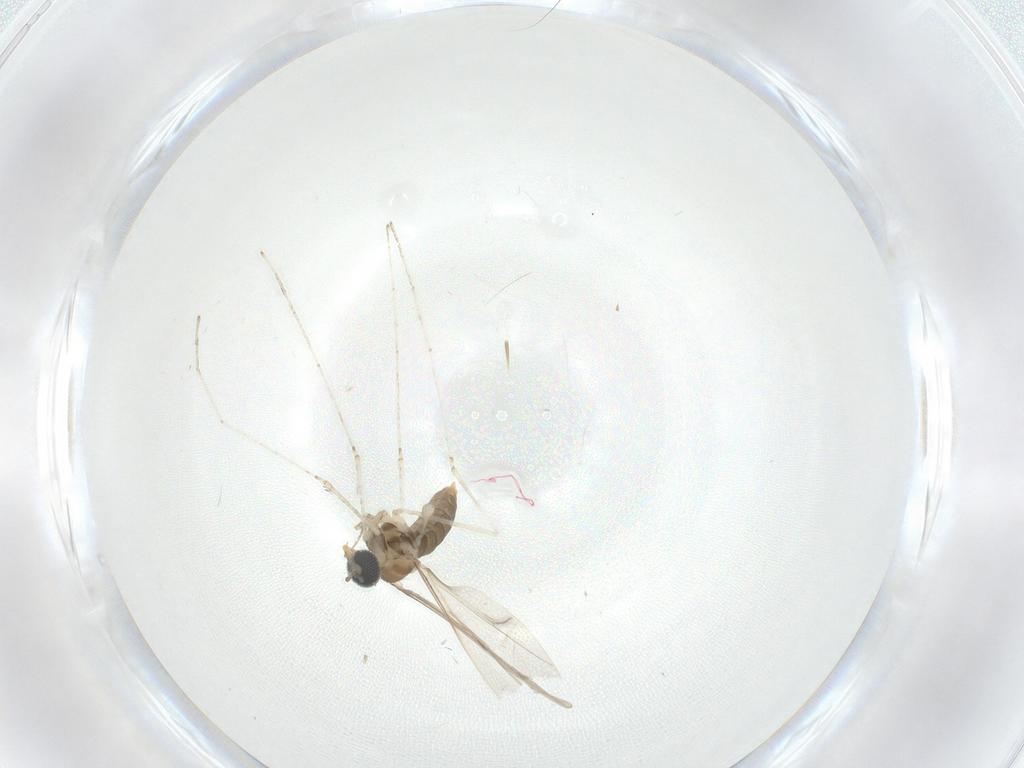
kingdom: Animalia
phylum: Arthropoda
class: Insecta
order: Diptera
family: Cecidomyiidae
